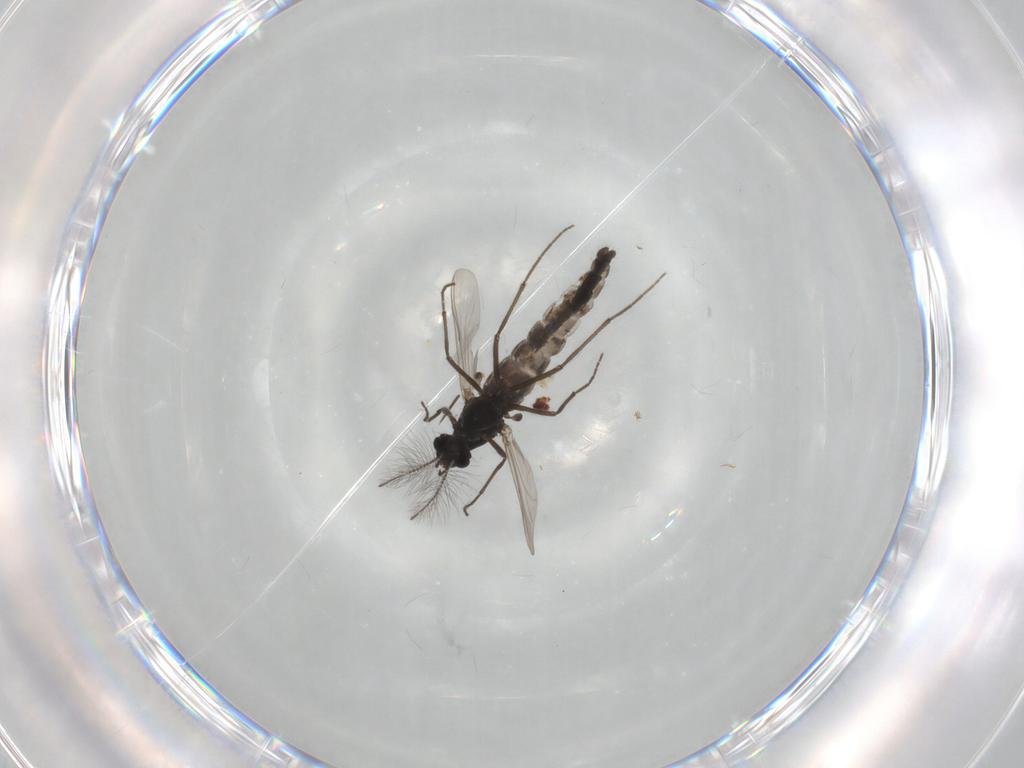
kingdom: Animalia
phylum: Arthropoda
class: Insecta
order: Diptera
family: Chironomidae
